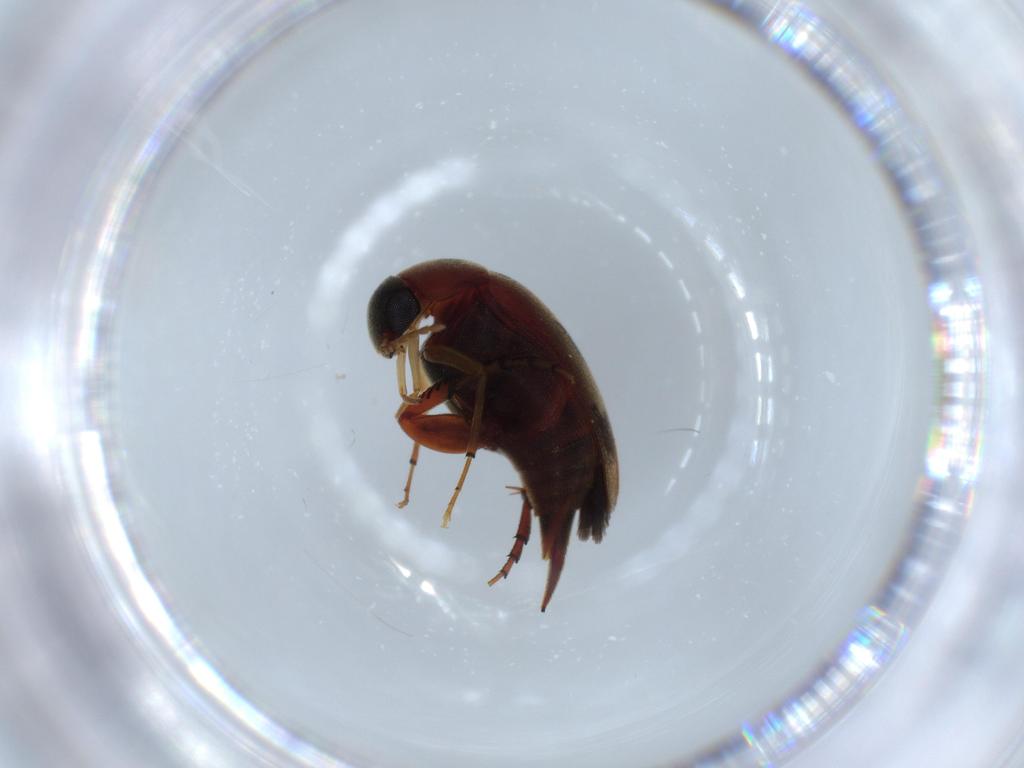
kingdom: Animalia
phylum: Arthropoda
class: Insecta
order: Coleoptera
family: Mordellidae
